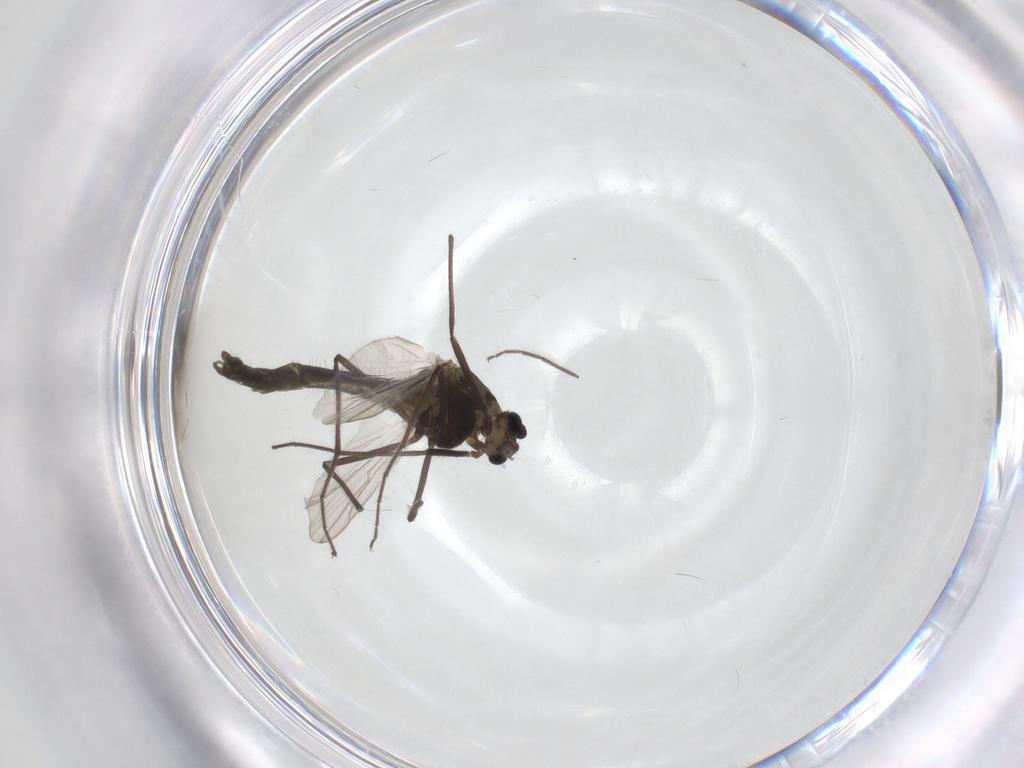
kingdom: Animalia
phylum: Arthropoda
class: Insecta
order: Diptera
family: Chironomidae
